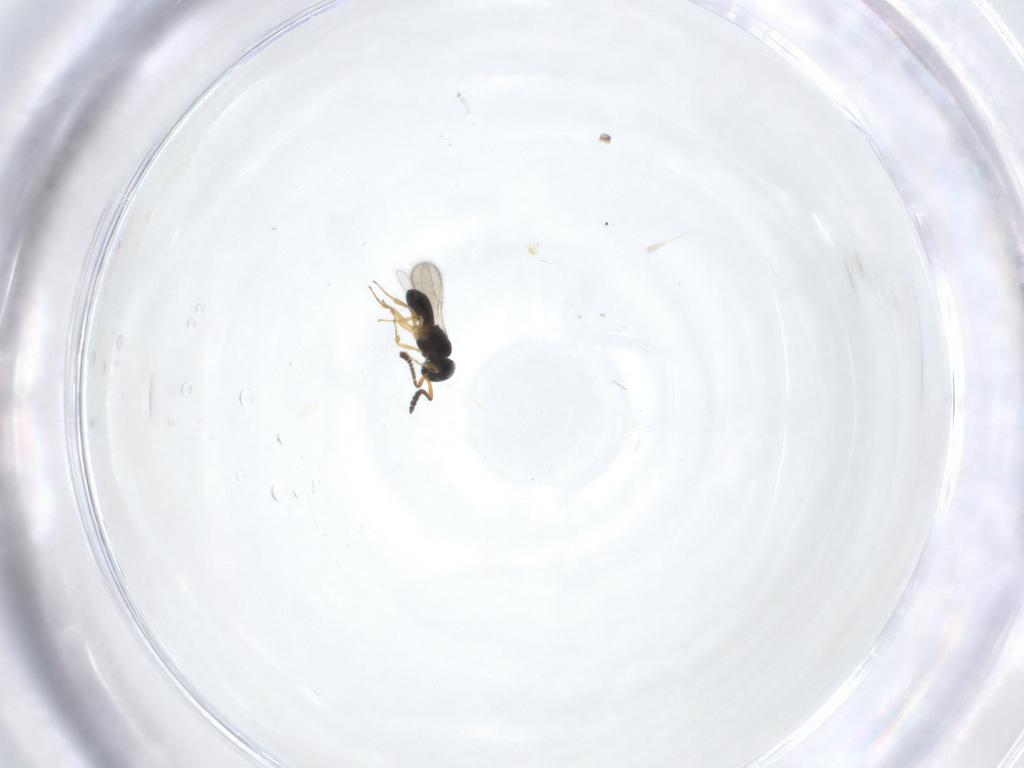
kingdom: Animalia
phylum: Arthropoda
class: Insecta
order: Hymenoptera
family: Scelionidae
